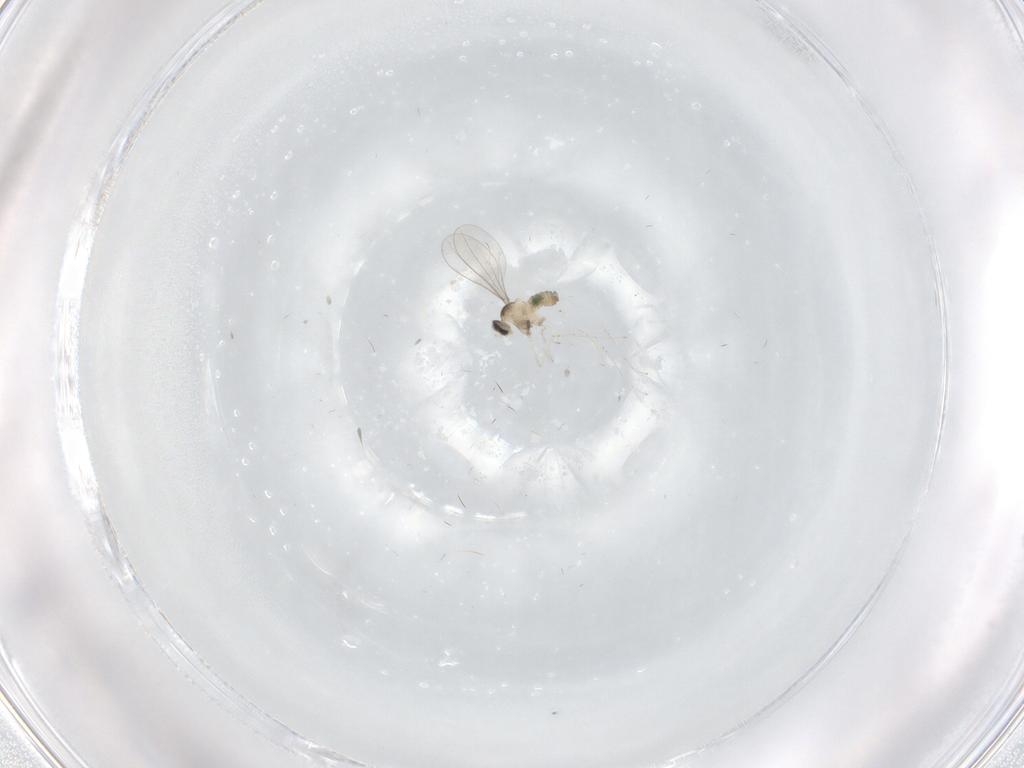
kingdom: Animalia
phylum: Arthropoda
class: Insecta
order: Diptera
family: Cecidomyiidae
